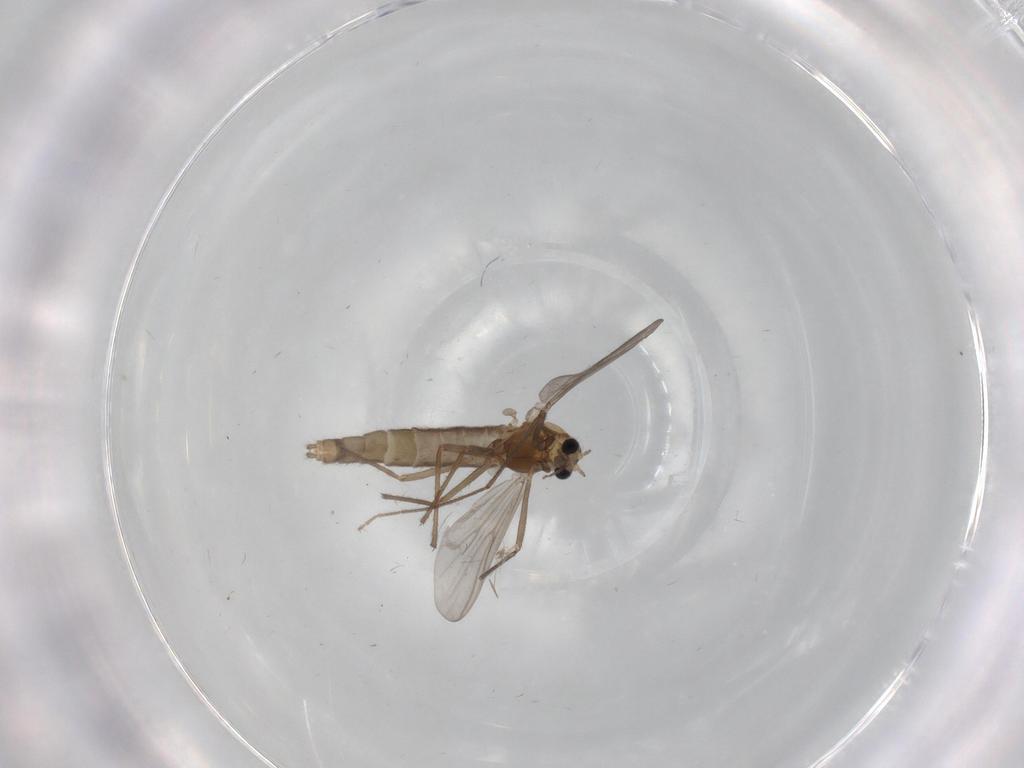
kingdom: Animalia
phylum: Arthropoda
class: Insecta
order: Diptera
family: Chironomidae
